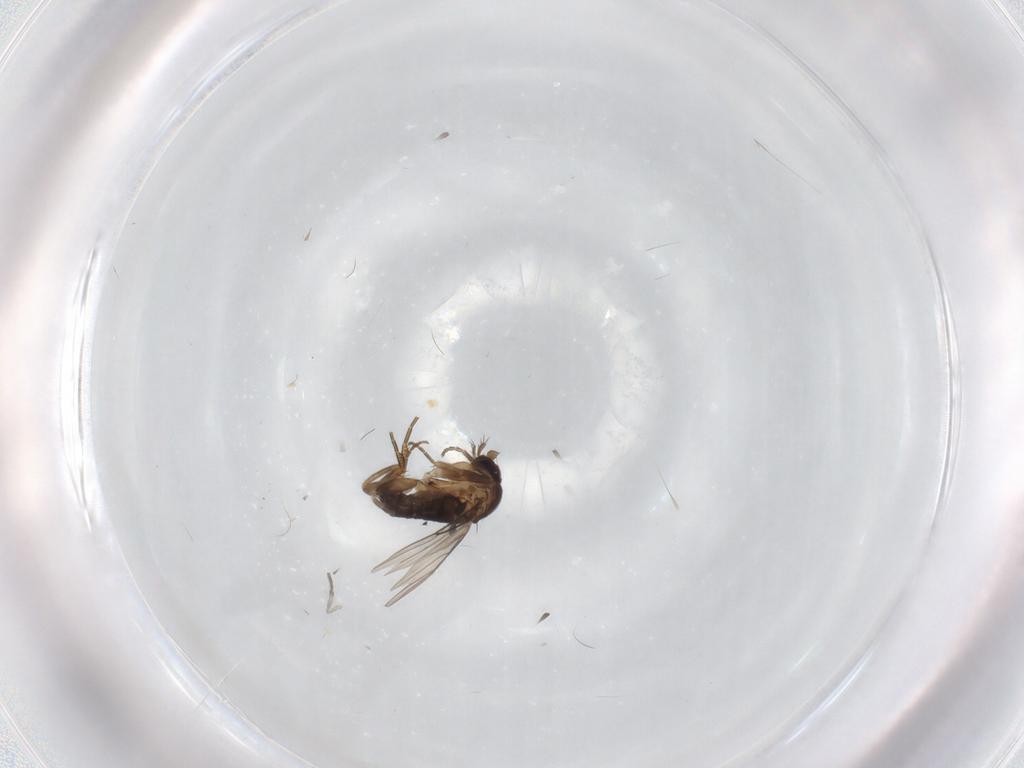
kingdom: Animalia
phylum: Arthropoda
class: Insecta
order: Diptera
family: Psychodidae
